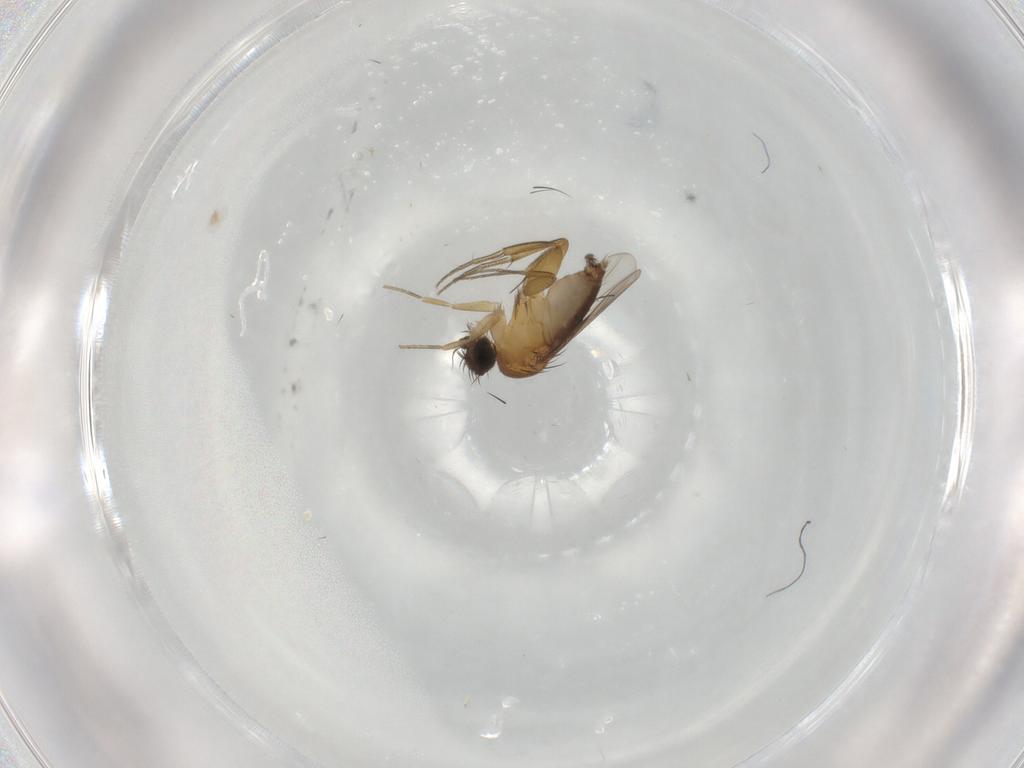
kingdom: Animalia
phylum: Arthropoda
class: Insecta
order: Diptera
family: Phoridae
